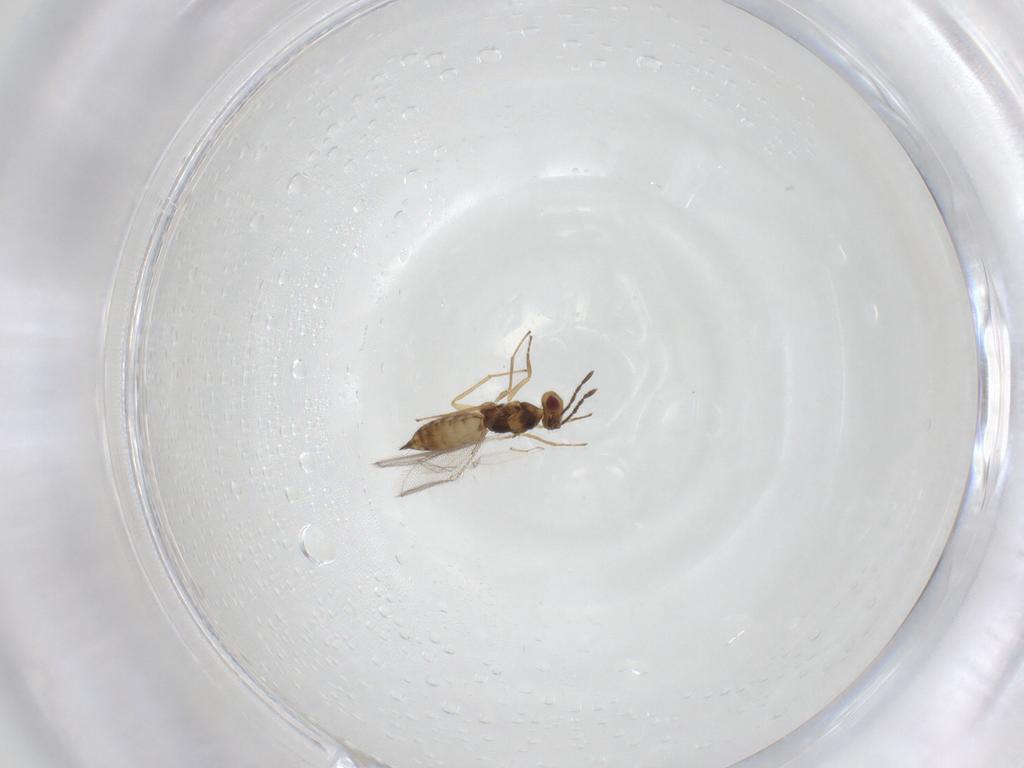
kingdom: Animalia
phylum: Arthropoda
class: Insecta
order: Hymenoptera
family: Eulophidae
